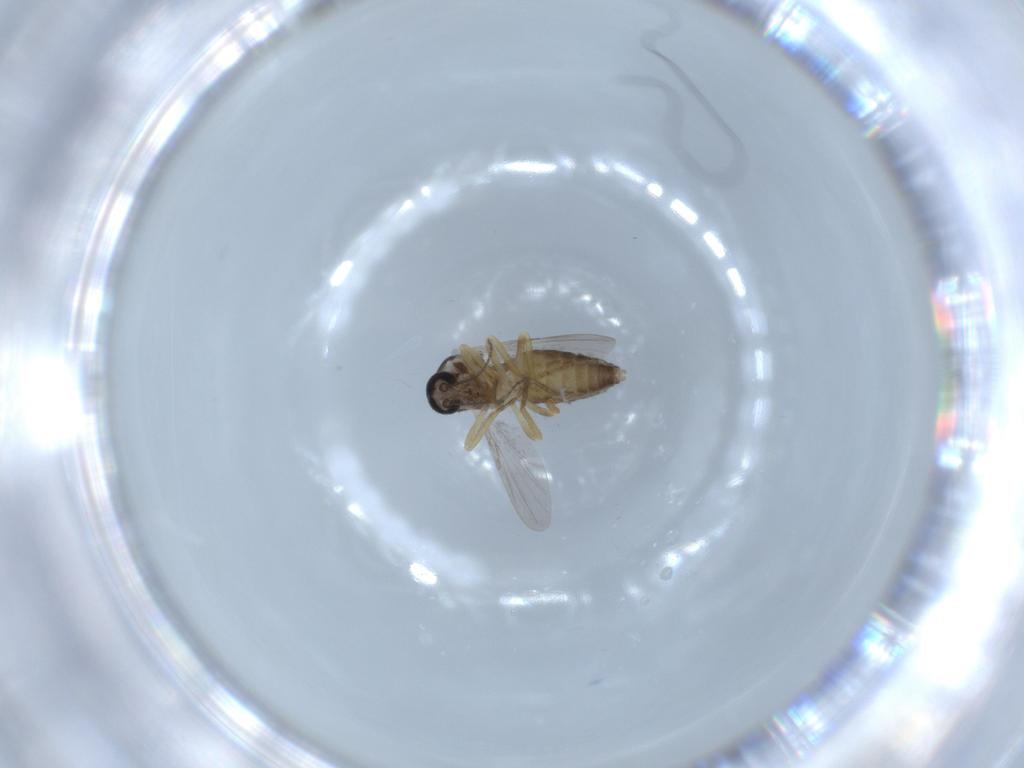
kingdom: Animalia
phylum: Arthropoda
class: Insecta
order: Diptera
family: Ceratopogonidae
